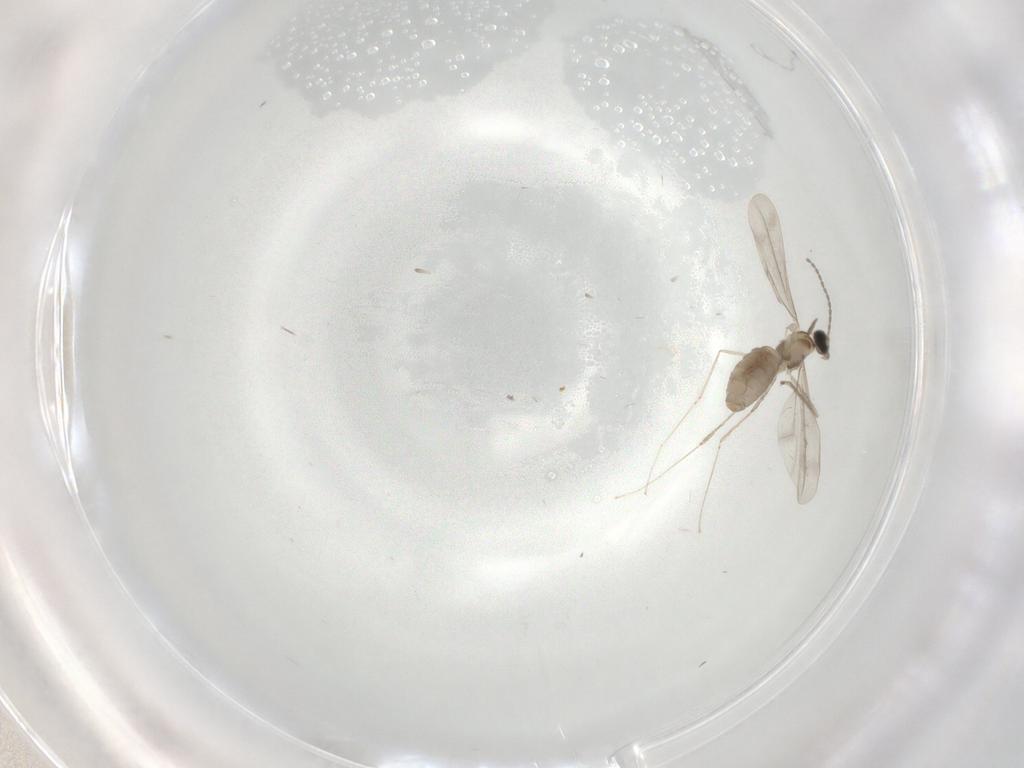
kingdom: Animalia
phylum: Arthropoda
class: Insecta
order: Diptera
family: Cecidomyiidae
